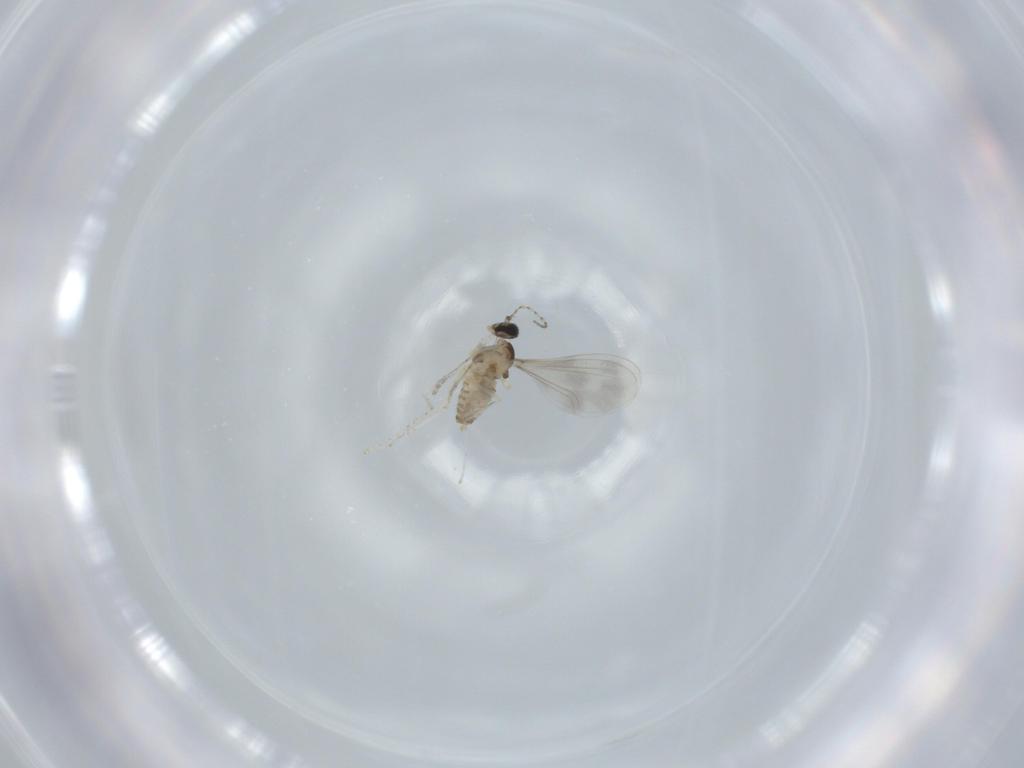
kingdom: Animalia
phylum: Arthropoda
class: Insecta
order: Diptera
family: Cecidomyiidae
